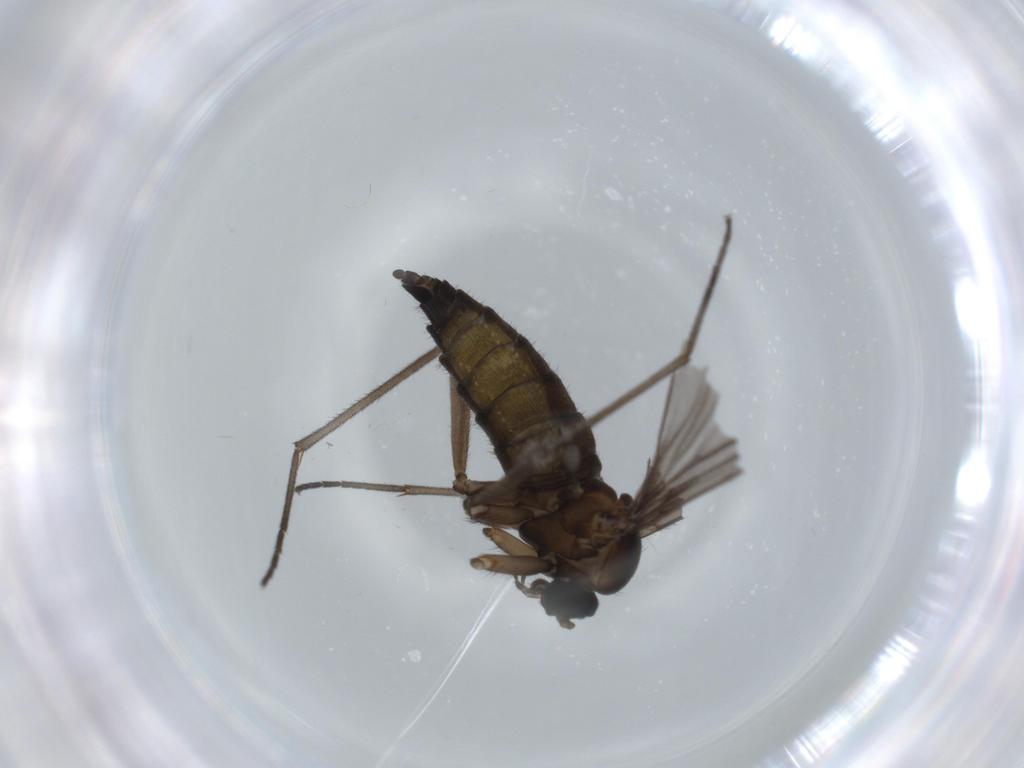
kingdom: Animalia
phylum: Arthropoda
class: Insecta
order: Diptera
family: Sciaridae
